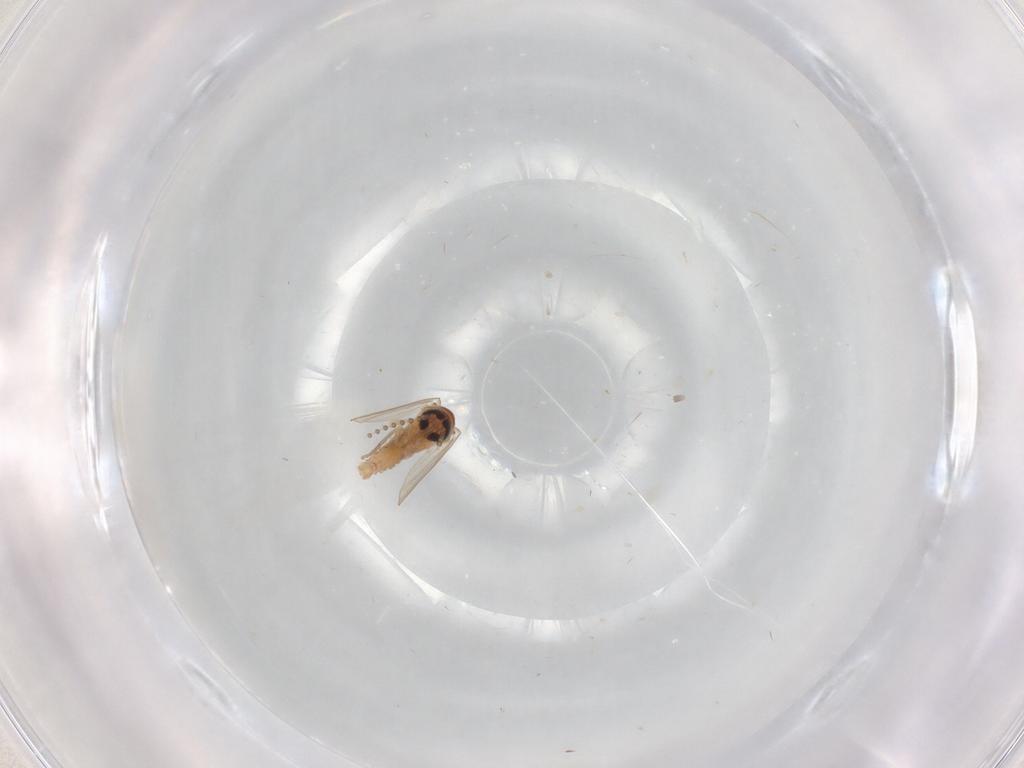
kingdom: Animalia
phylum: Arthropoda
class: Insecta
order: Diptera
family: Psychodidae
